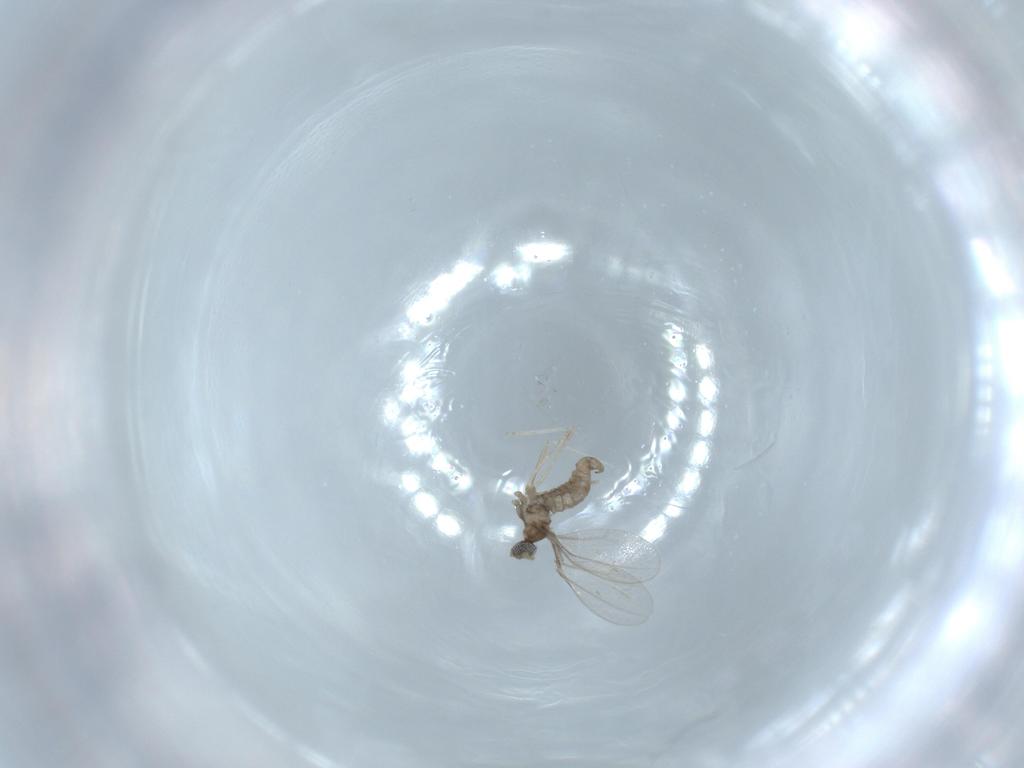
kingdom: Animalia
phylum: Arthropoda
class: Insecta
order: Diptera
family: Cecidomyiidae
